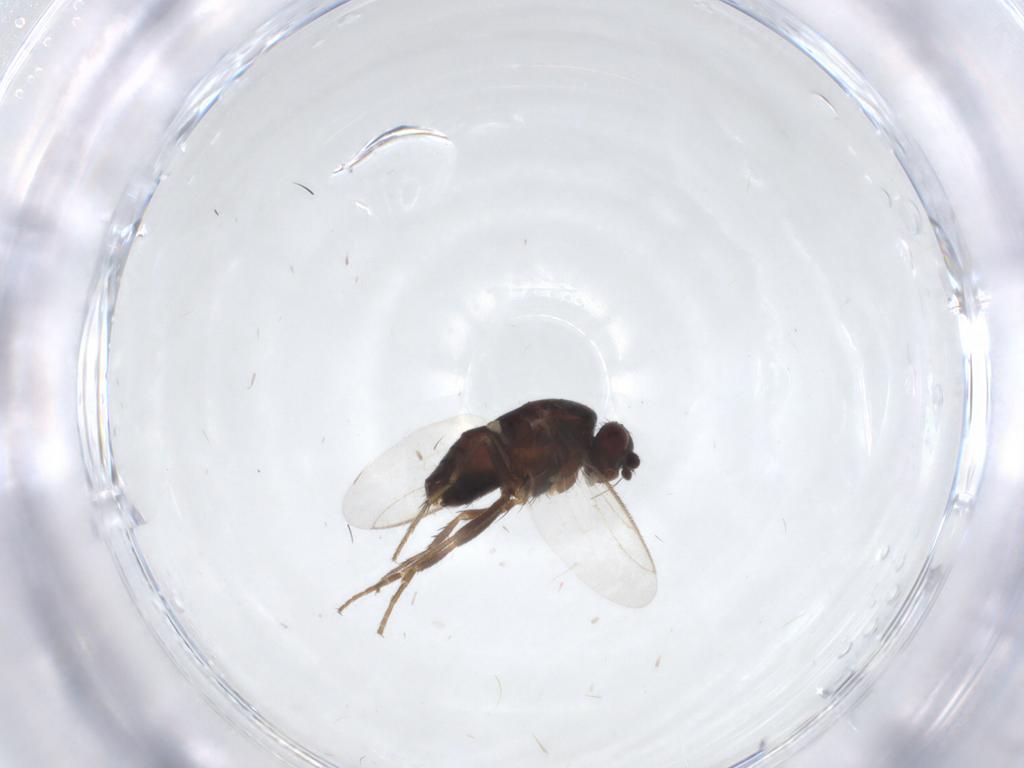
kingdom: Animalia
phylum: Arthropoda
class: Insecta
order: Diptera
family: Sphaeroceridae
